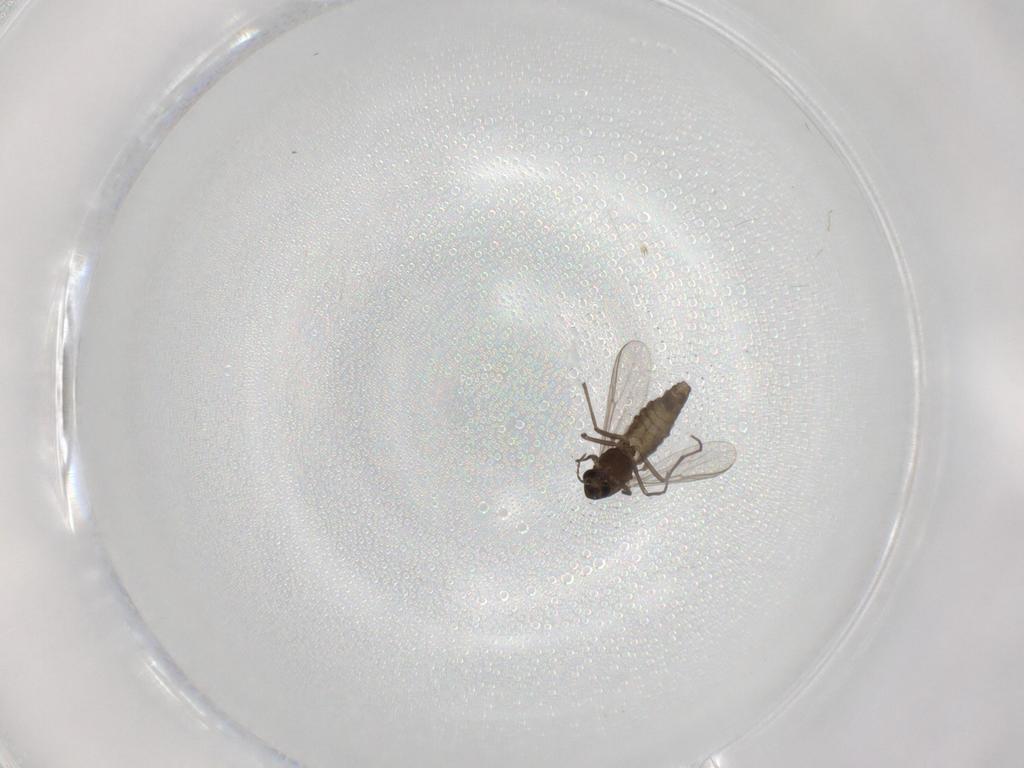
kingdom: Animalia
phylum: Arthropoda
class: Insecta
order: Diptera
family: Chironomidae
